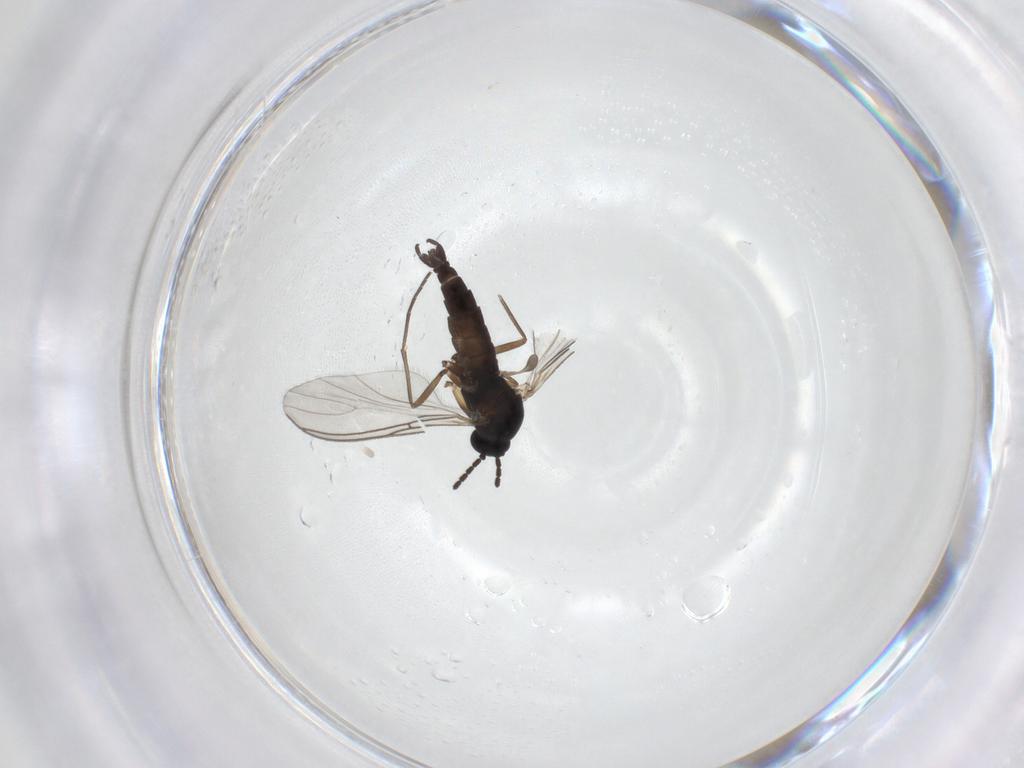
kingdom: Animalia
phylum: Arthropoda
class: Insecta
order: Diptera
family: Sciaridae
